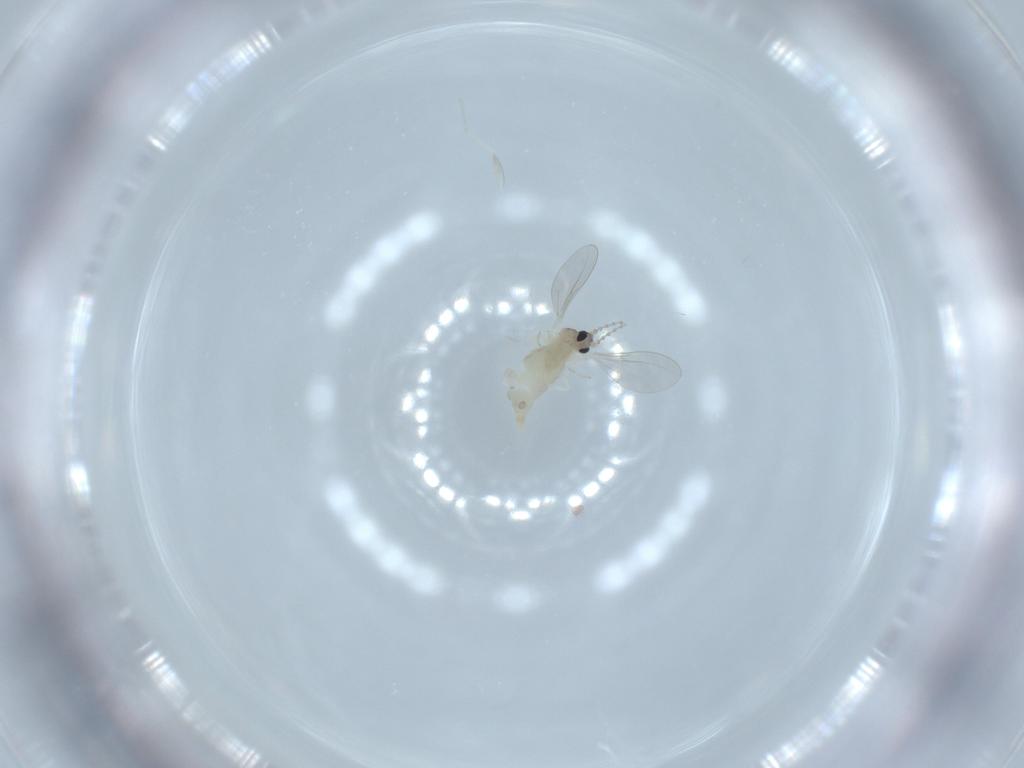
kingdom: Animalia
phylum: Arthropoda
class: Insecta
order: Diptera
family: Cecidomyiidae
